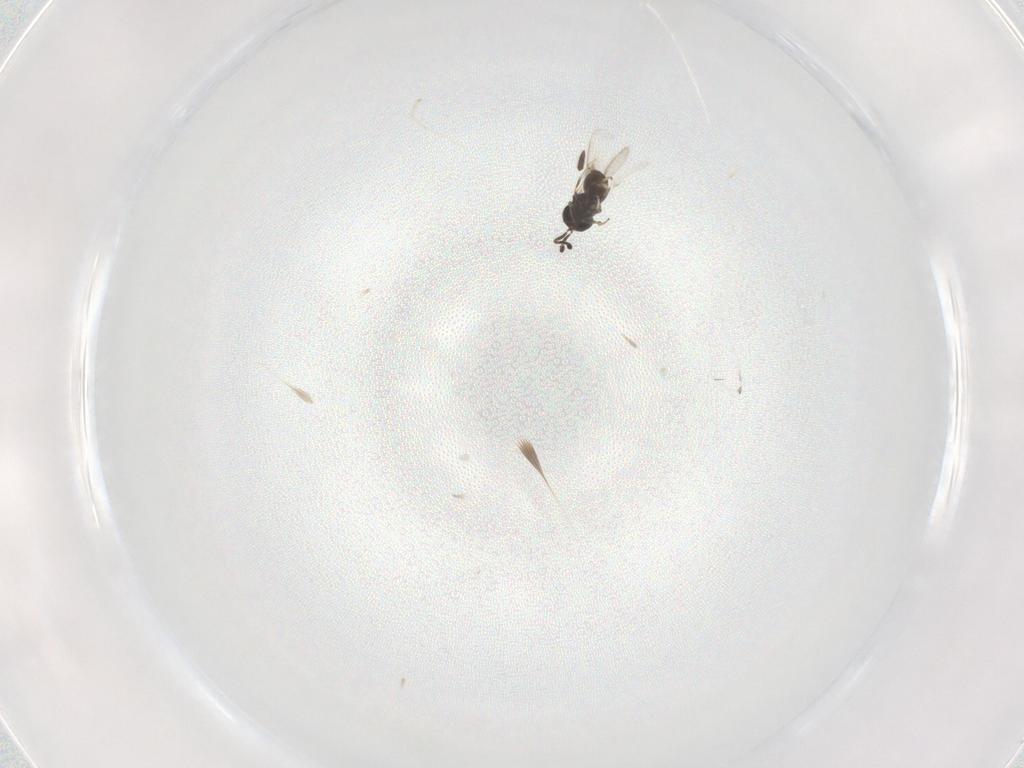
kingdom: Animalia
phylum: Arthropoda
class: Insecta
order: Hymenoptera
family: Scelionidae
